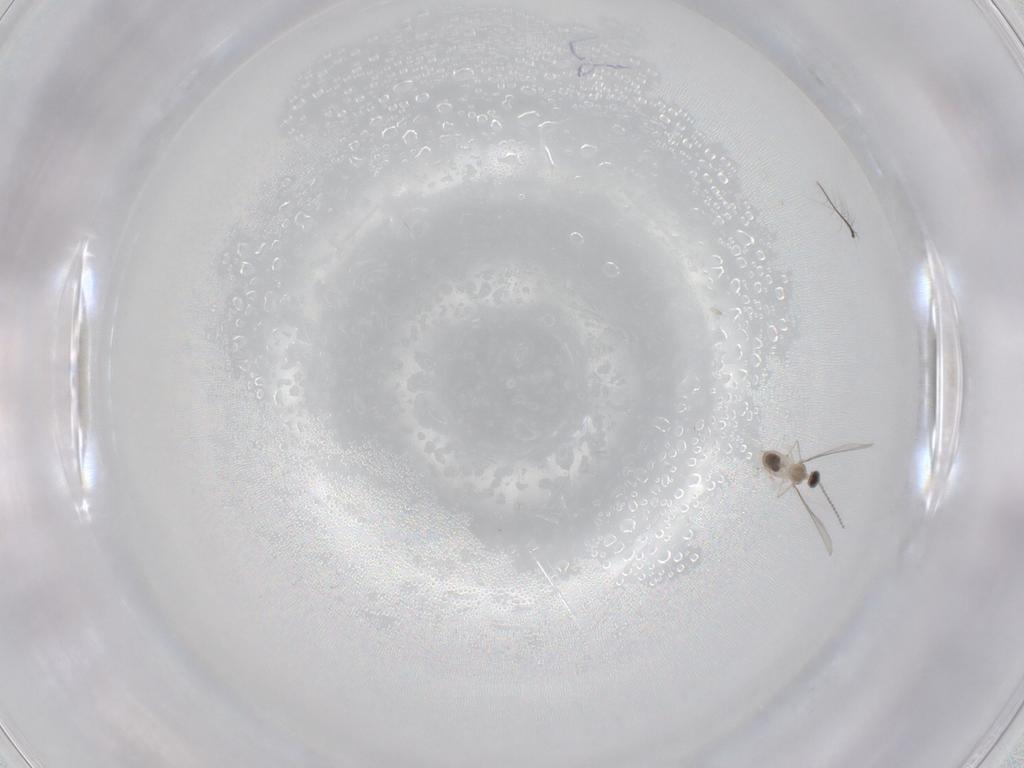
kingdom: Animalia
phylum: Arthropoda
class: Insecta
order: Diptera
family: Chironomidae
